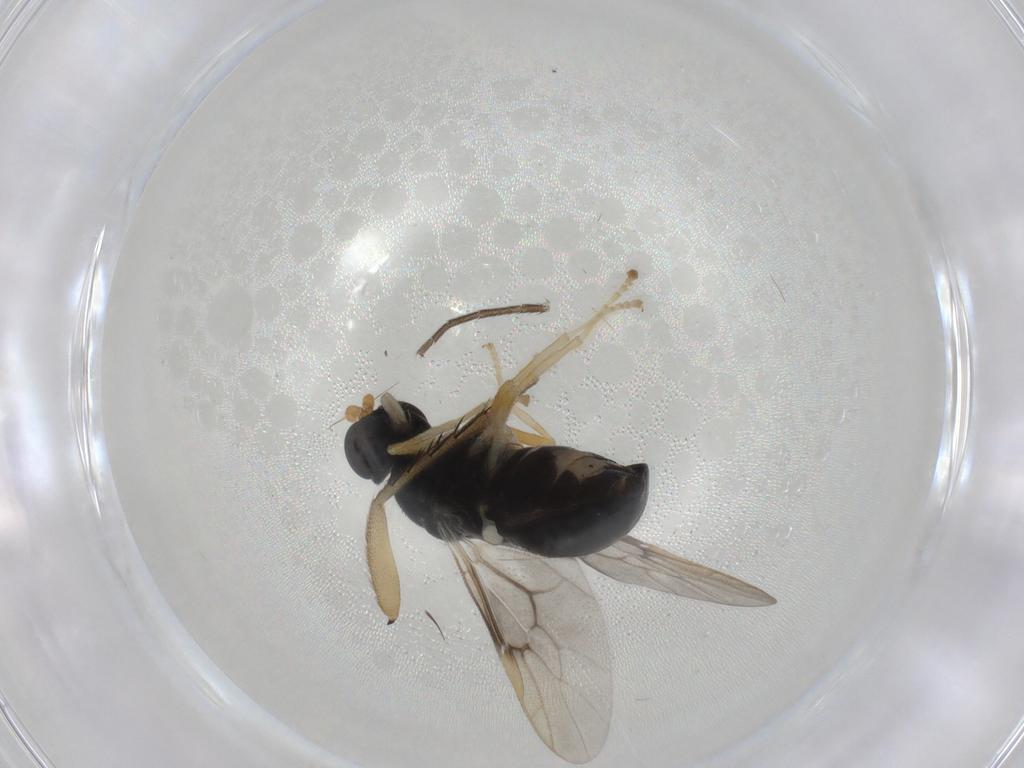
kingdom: Animalia
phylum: Arthropoda
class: Insecta
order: Diptera
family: Stratiomyidae
